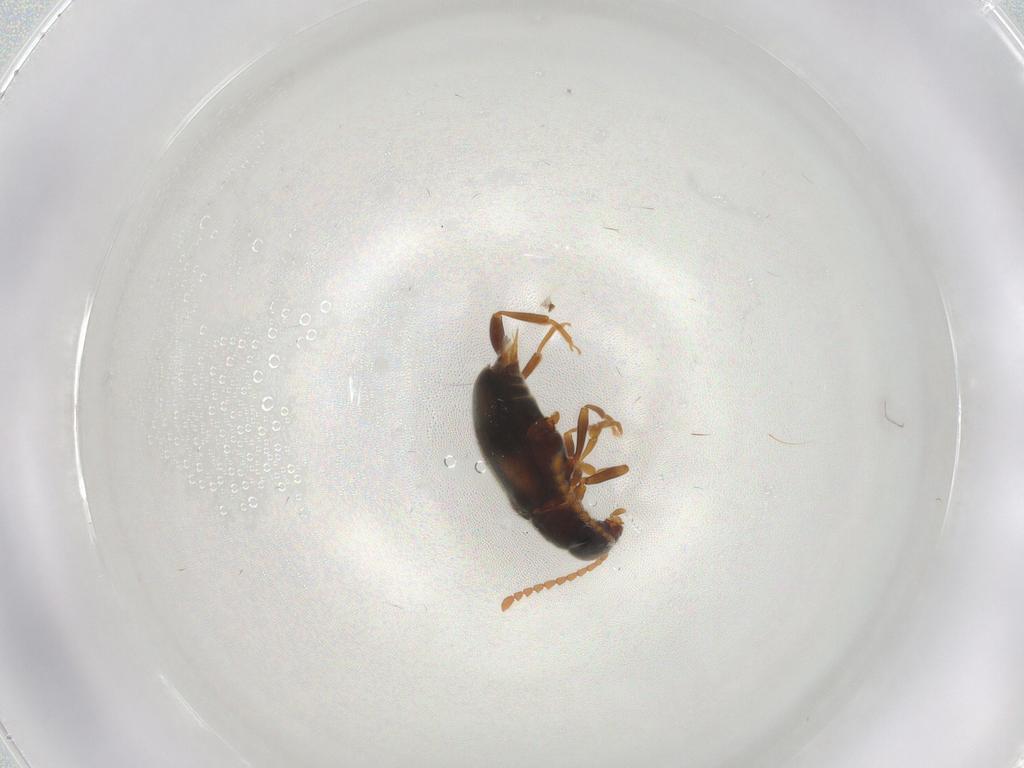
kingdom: Animalia
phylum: Arthropoda
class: Insecta
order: Coleoptera
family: Aderidae
